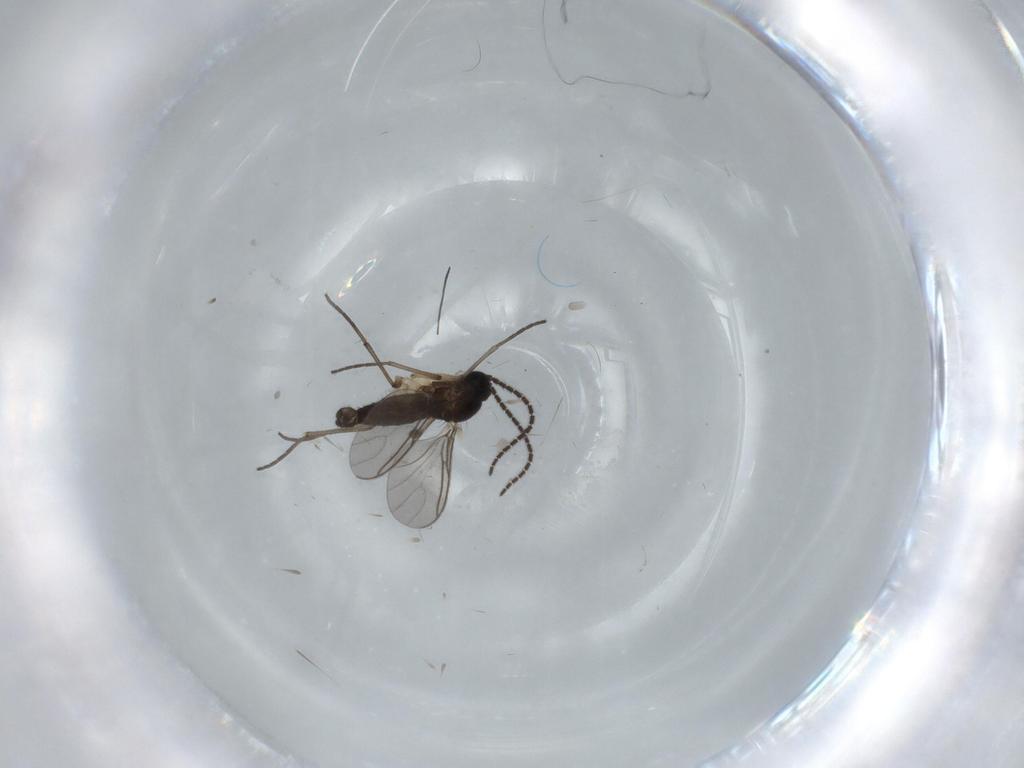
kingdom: Animalia
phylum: Arthropoda
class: Insecta
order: Diptera
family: Sciaridae
